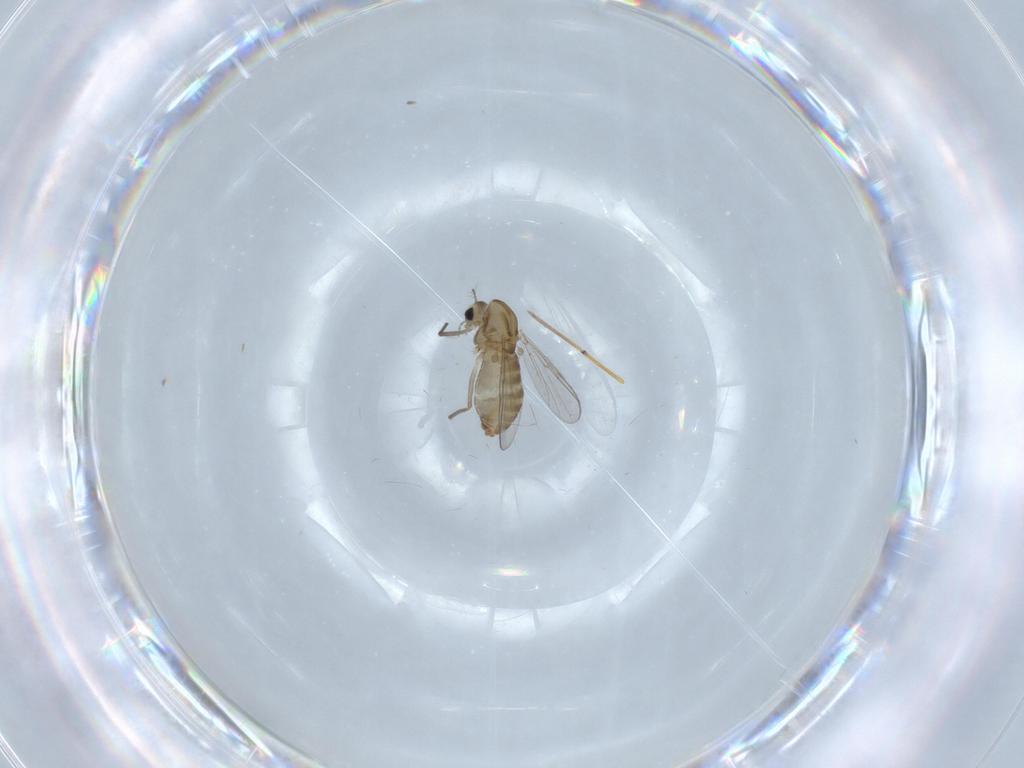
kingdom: Animalia
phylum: Arthropoda
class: Insecta
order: Diptera
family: Chironomidae
